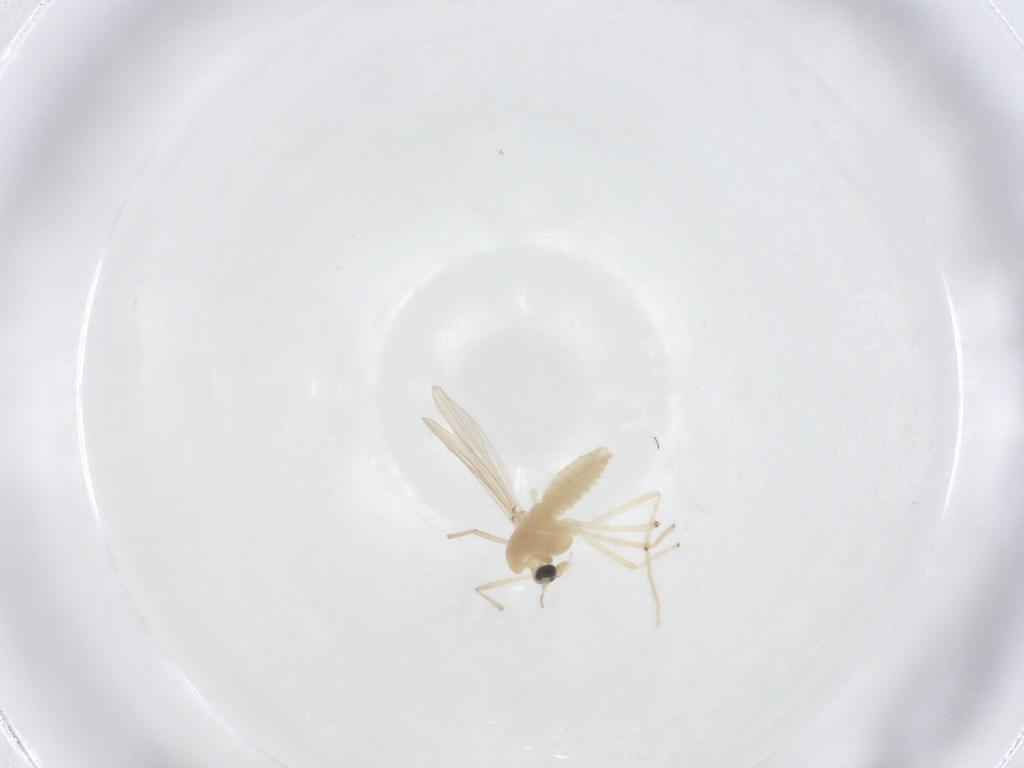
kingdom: Animalia
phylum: Arthropoda
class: Insecta
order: Diptera
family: Chironomidae
